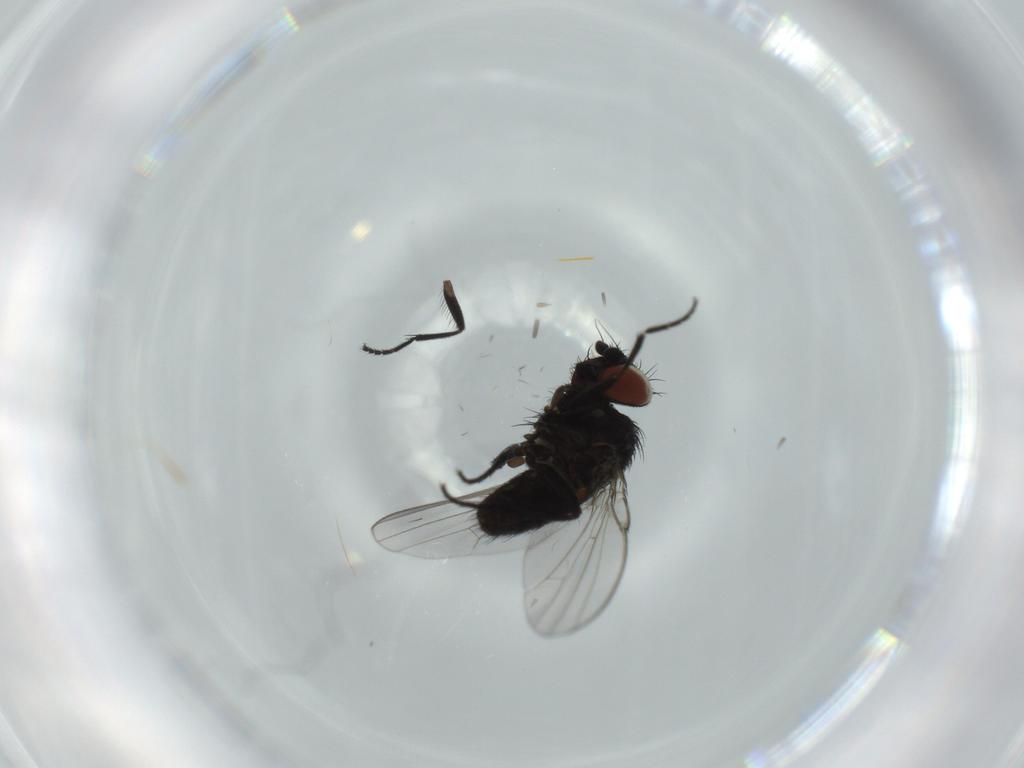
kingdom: Animalia
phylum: Arthropoda
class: Insecta
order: Diptera
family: Milichiidae
